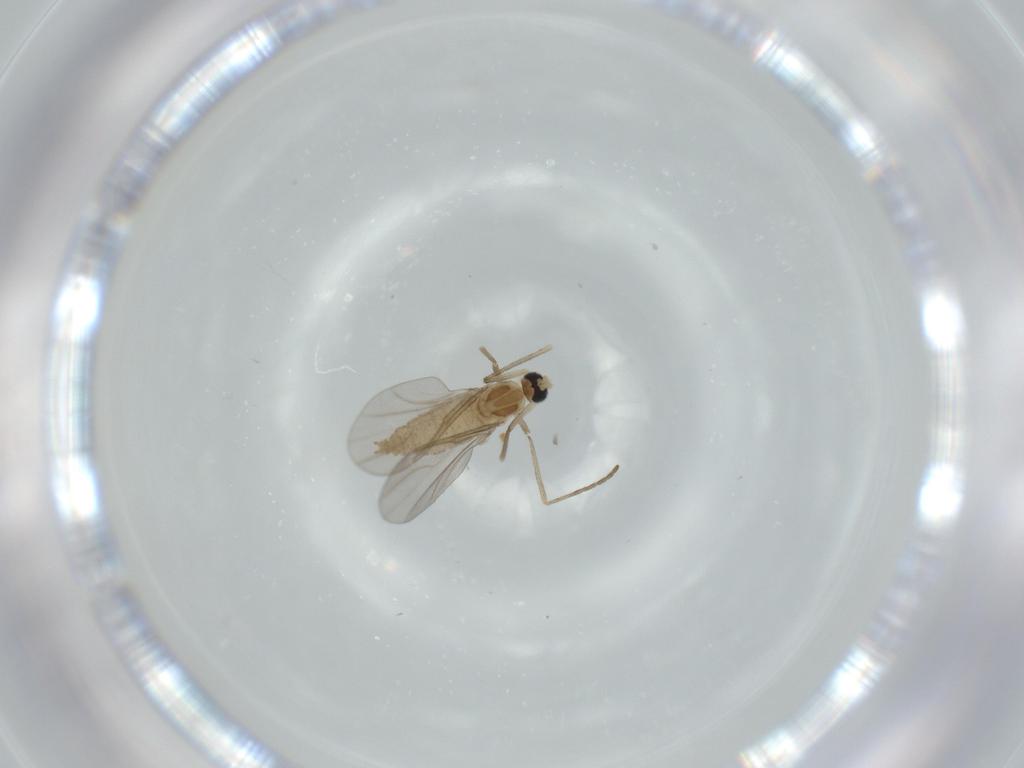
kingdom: Animalia
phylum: Arthropoda
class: Insecta
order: Diptera
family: Cecidomyiidae
